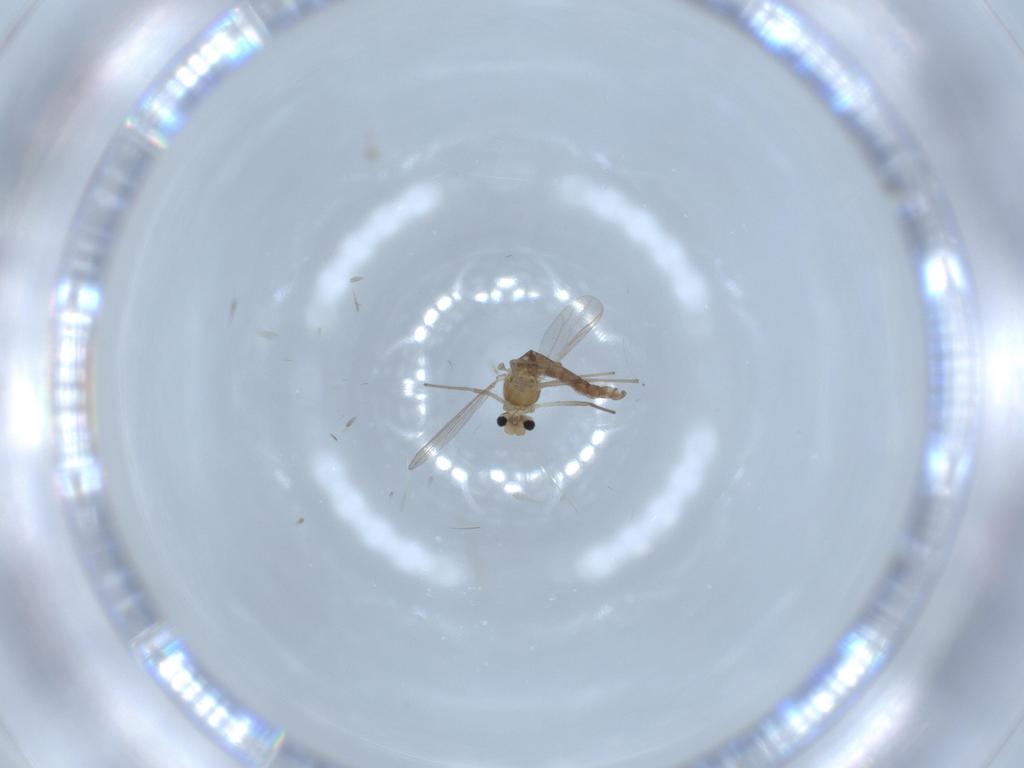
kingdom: Animalia
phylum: Arthropoda
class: Insecta
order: Diptera
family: Chironomidae
